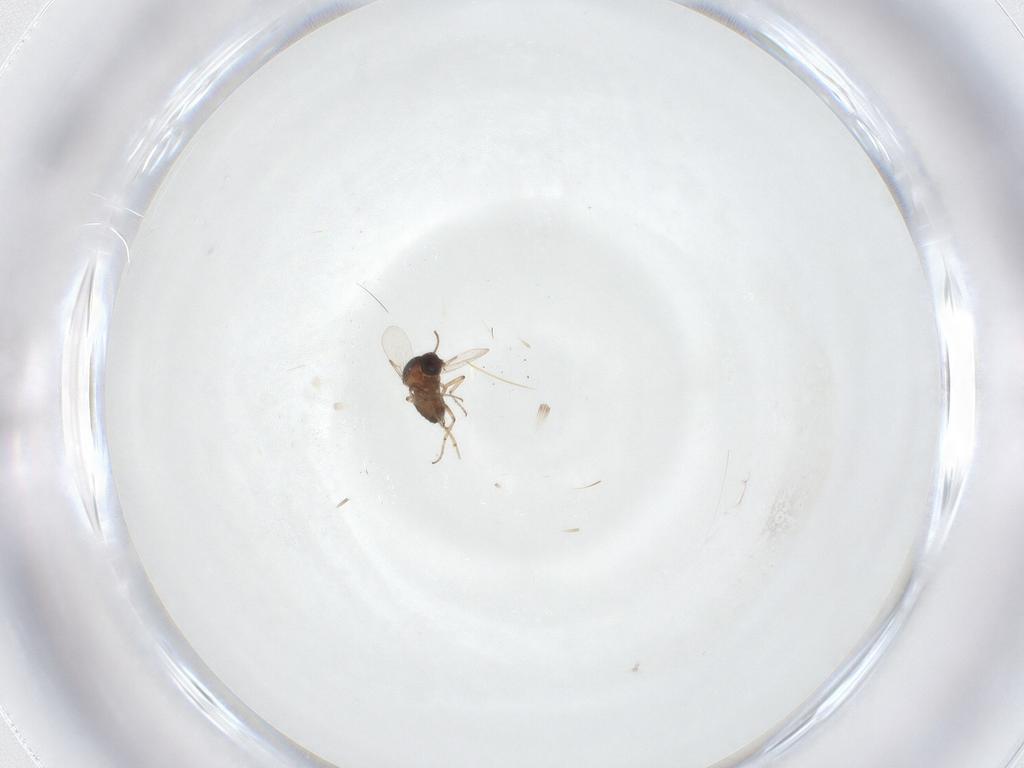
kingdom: Animalia
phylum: Arthropoda
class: Insecta
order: Diptera
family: Ceratopogonidae
